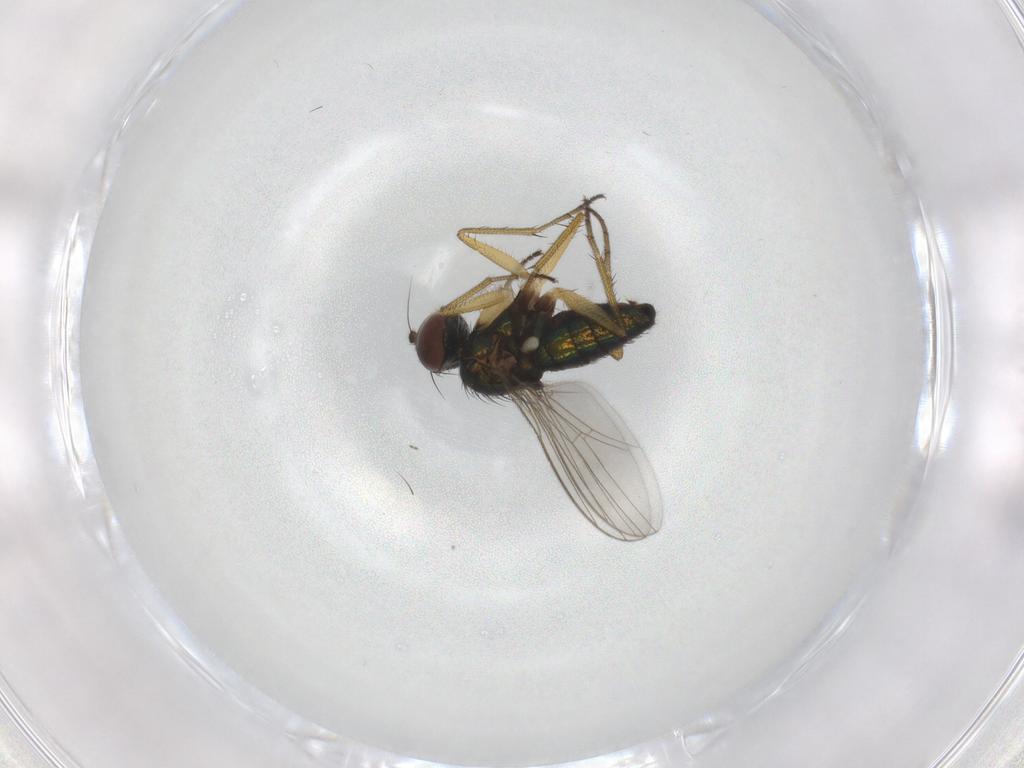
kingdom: Animalia
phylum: Arthropoda
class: Insecta
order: Diptera
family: Dolichopodidae
